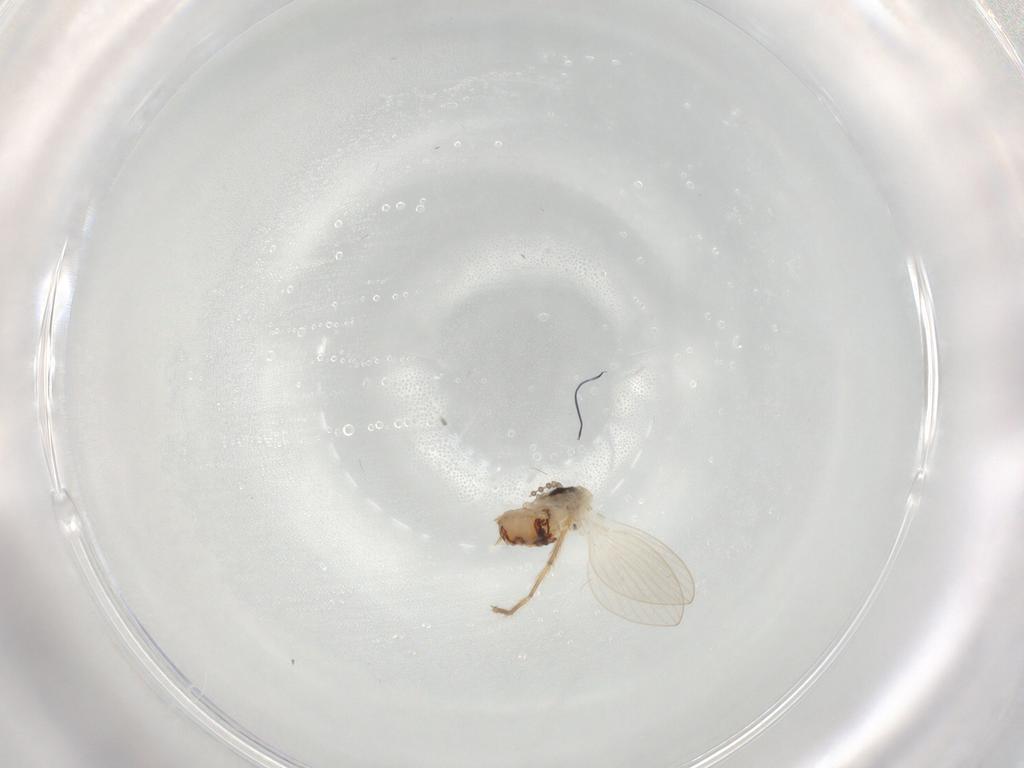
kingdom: Animalia
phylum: Arthropoda
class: Insecta
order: Diptera
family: Psychodidae
